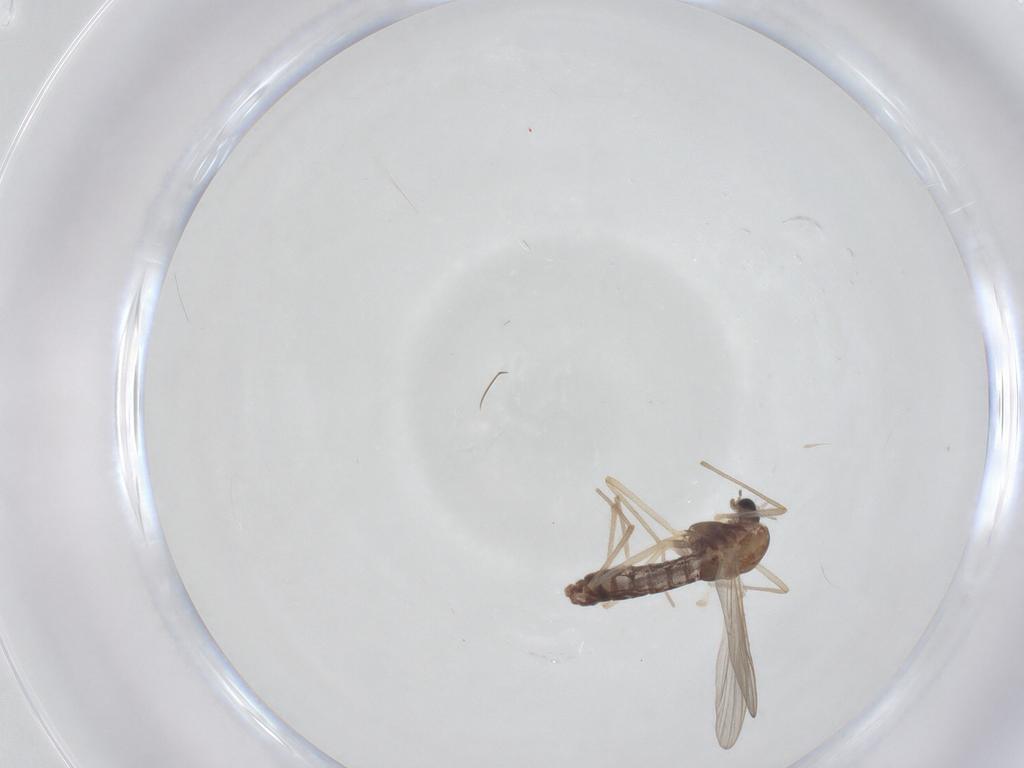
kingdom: Animalia
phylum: Arthropoda
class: Insecta
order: Diptera
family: Chironomidae
